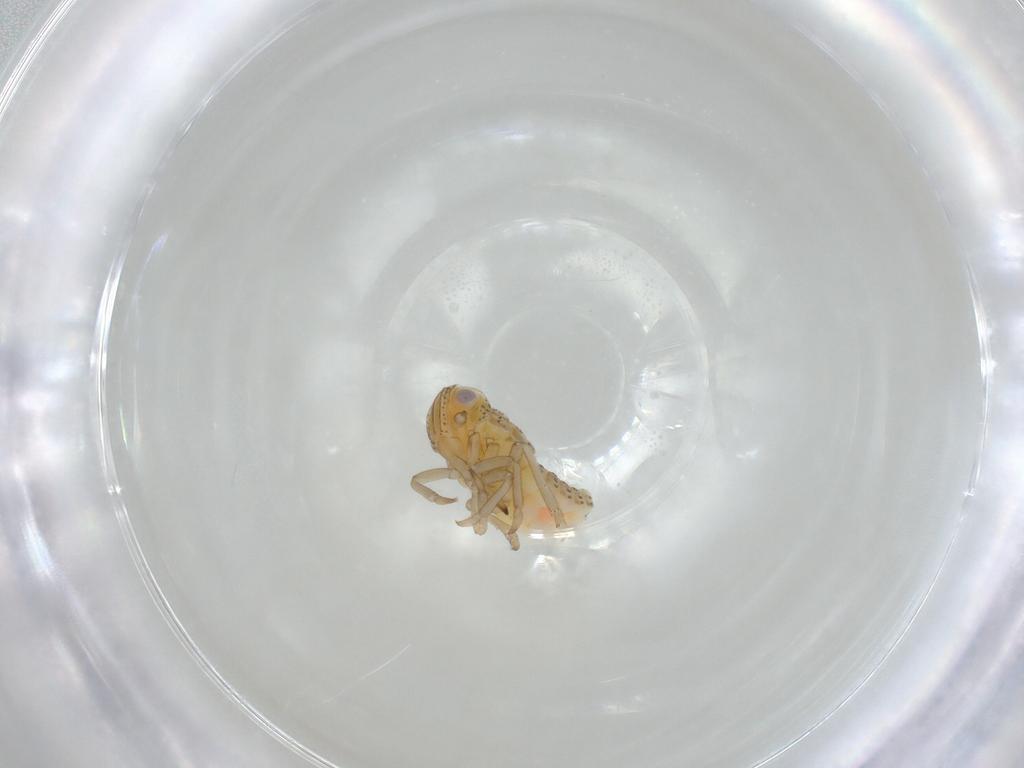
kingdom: Animalia
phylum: Arthropoda
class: Insecta
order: Hemiptera
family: Tropiduchidae
